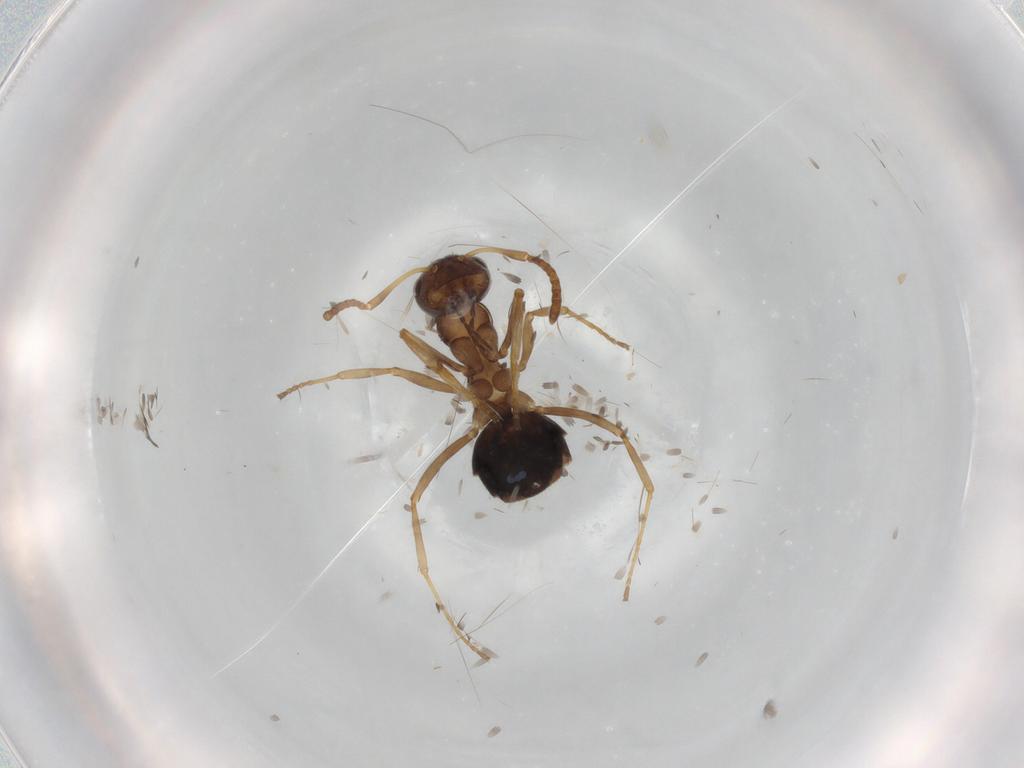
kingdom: Animalia
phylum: Arthropoda
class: Insecta
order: Hymenoptera
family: Formicidae
